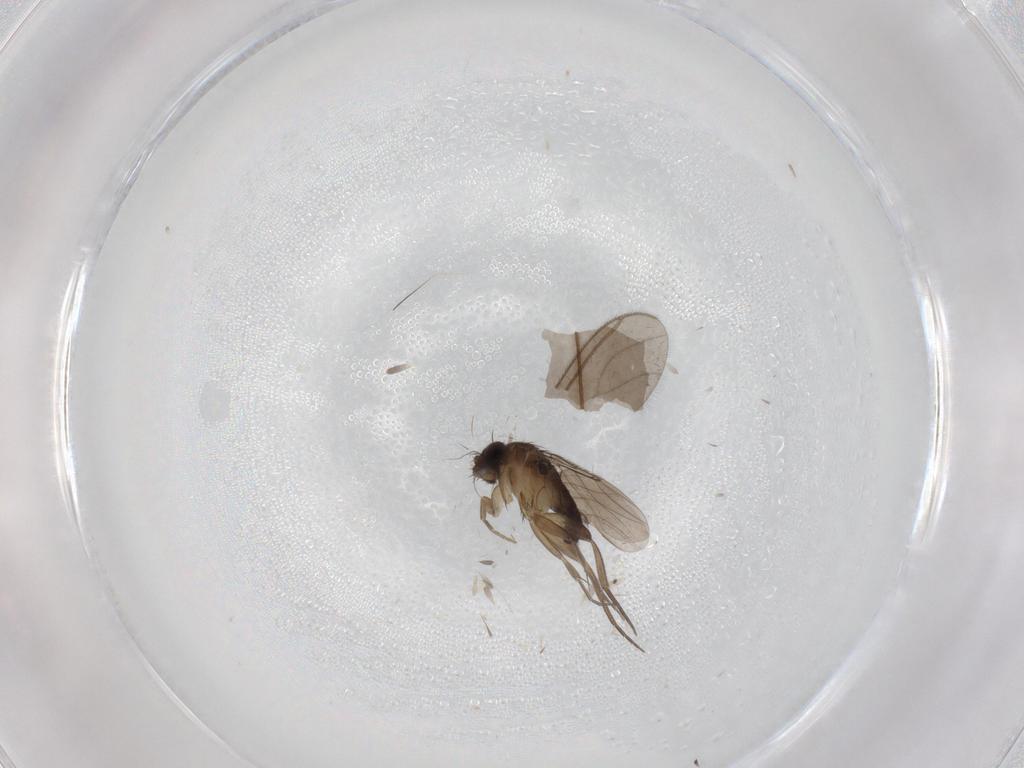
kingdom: Animalia
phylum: Arthropoda
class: Insecta
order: Diptera
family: Phoridae
